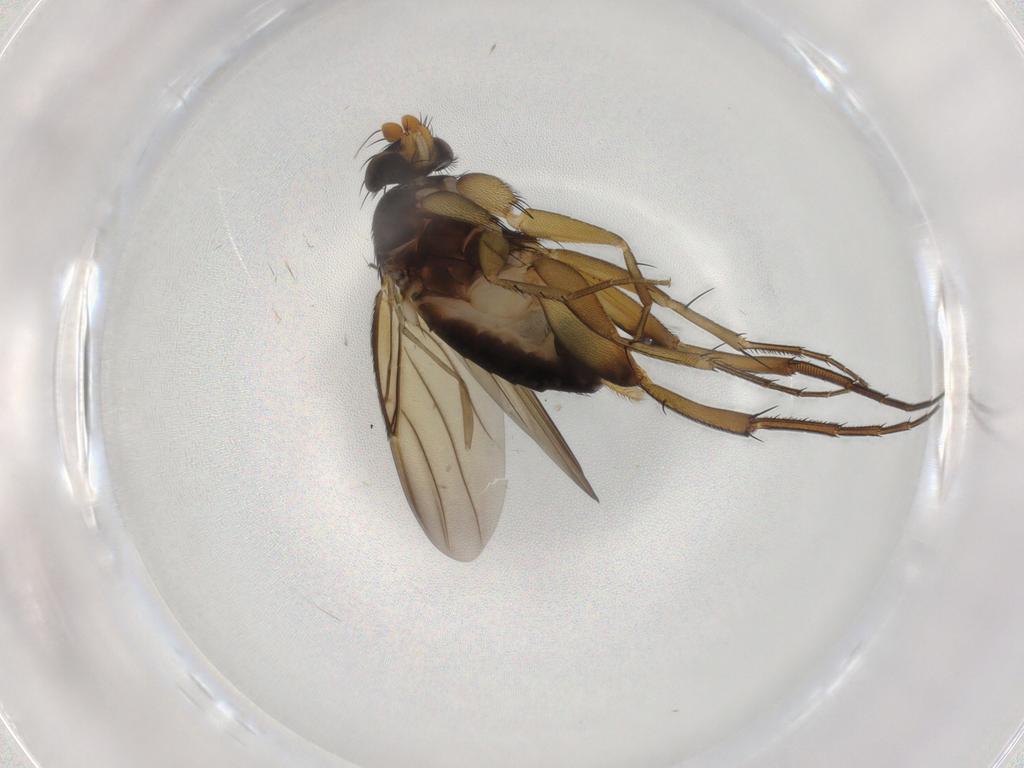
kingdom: Animalia
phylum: Arthropoda
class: Insecta
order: Diptera
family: Phoridae
